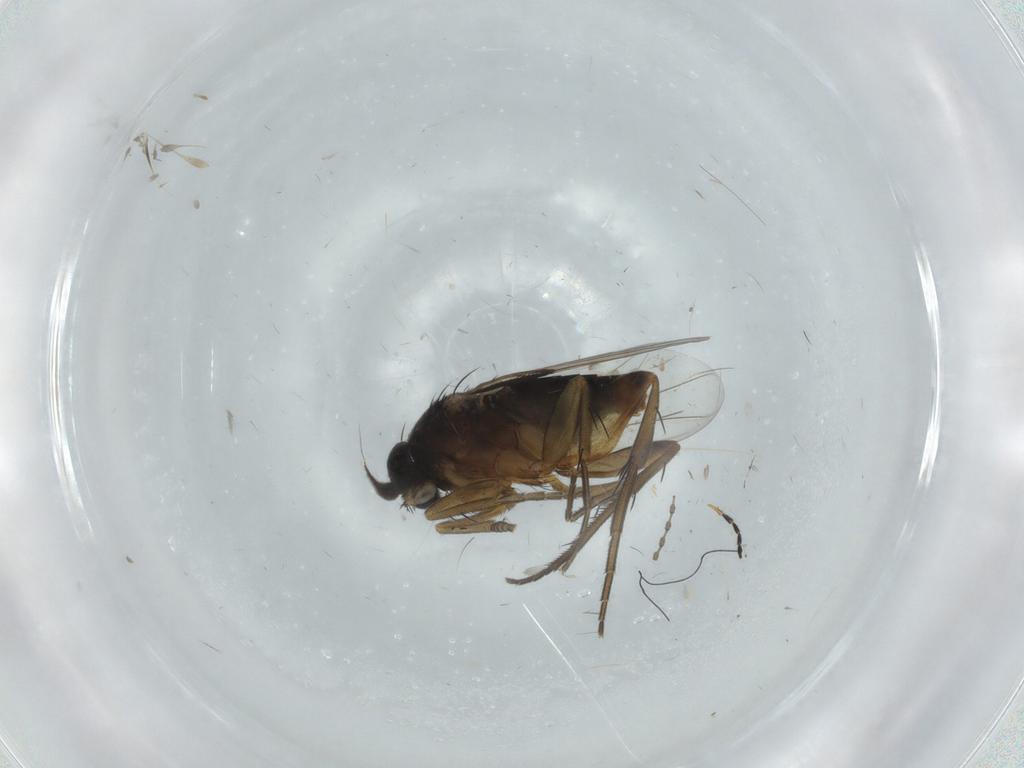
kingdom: Animalia
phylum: Arthropoda
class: Insecta
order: Diptera
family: Phoridae
